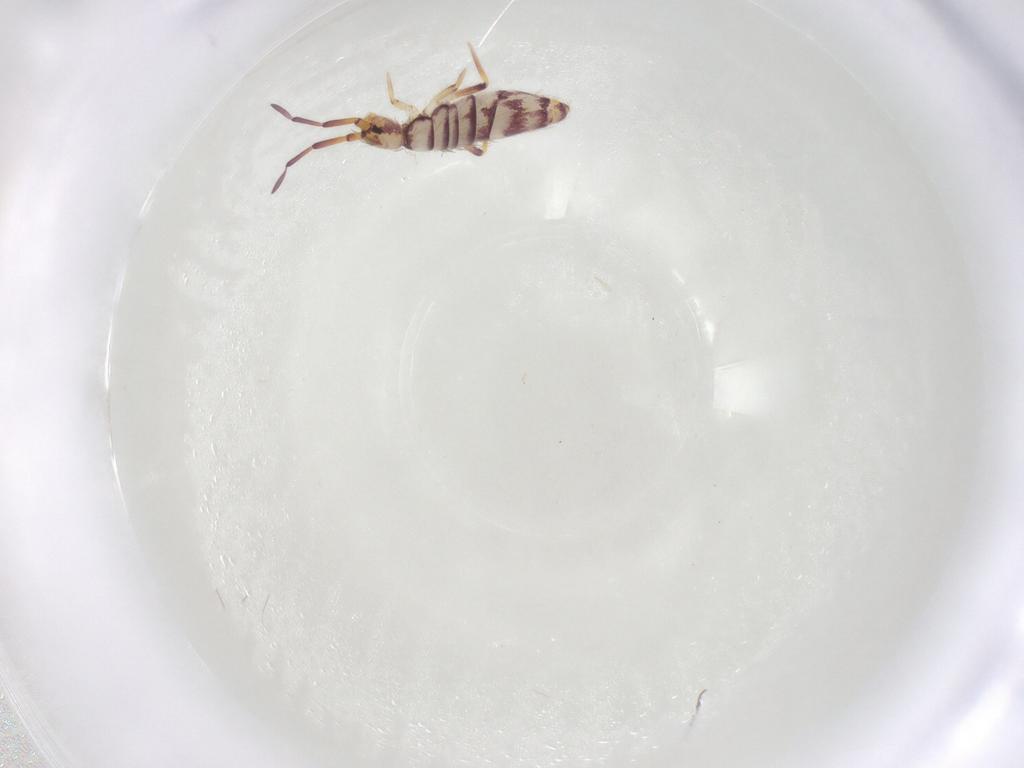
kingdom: Animalia
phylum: Arthropoda
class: Collembola
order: Entomobryomorpha
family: Entomobryidae
